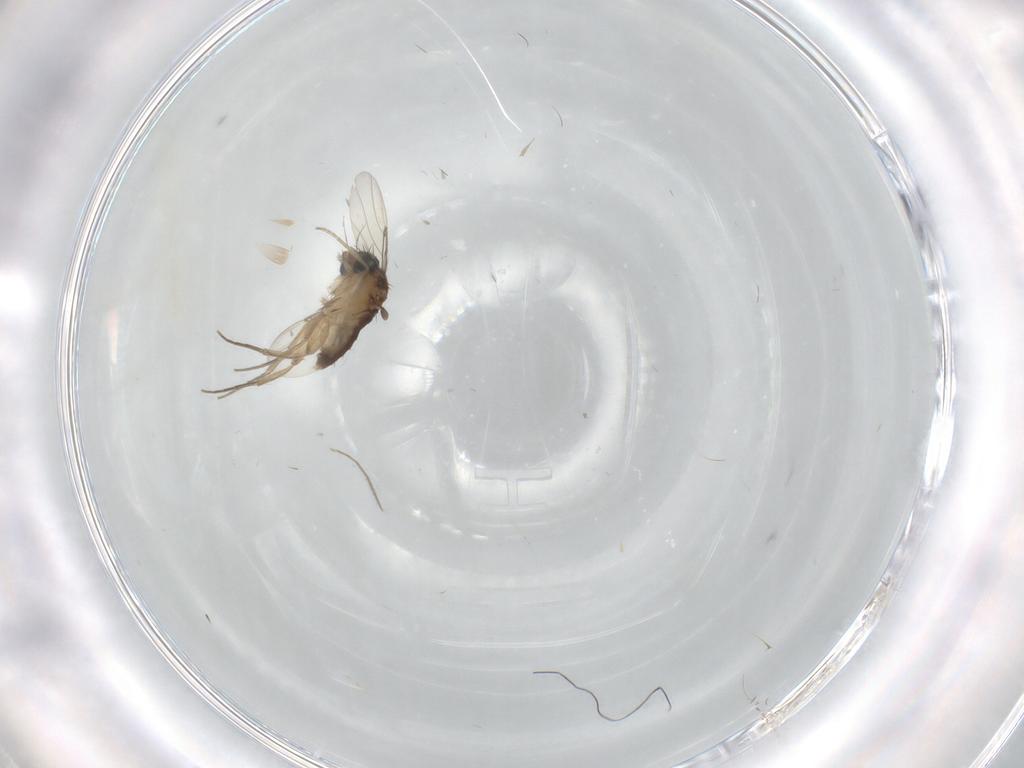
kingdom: Animalia
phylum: Arthropoda
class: Insecta
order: Diptera
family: Phoridae
